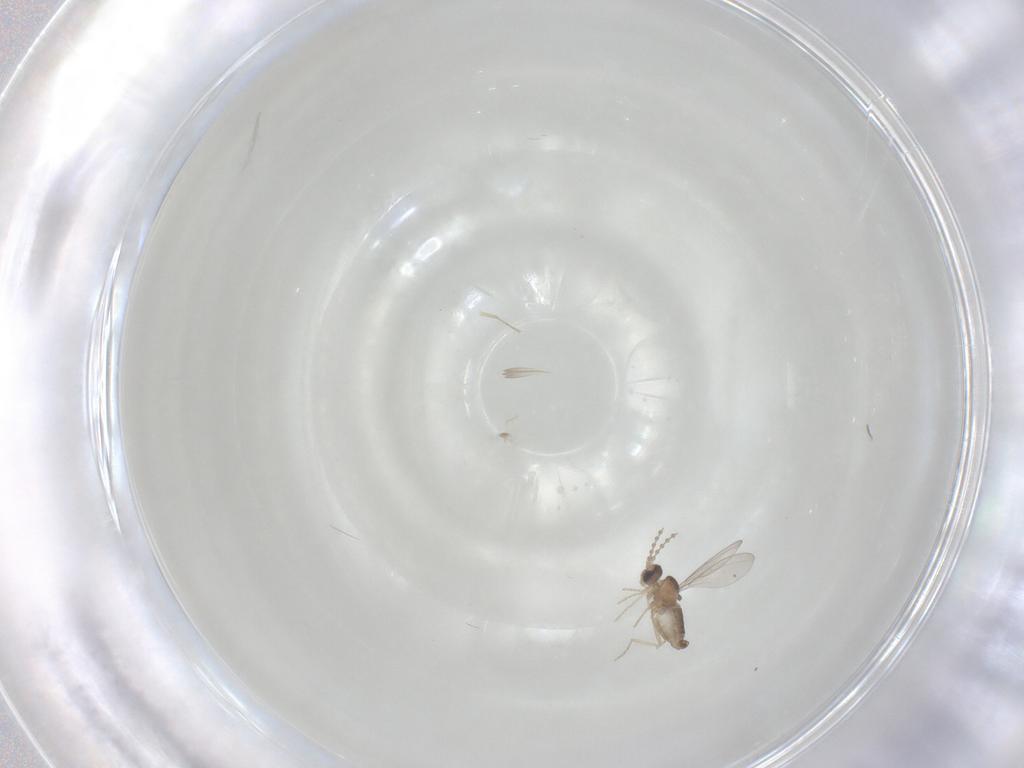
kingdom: Animalia
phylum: Arthropoda
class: Insecta
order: Diptera
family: Cecidomyiidae
